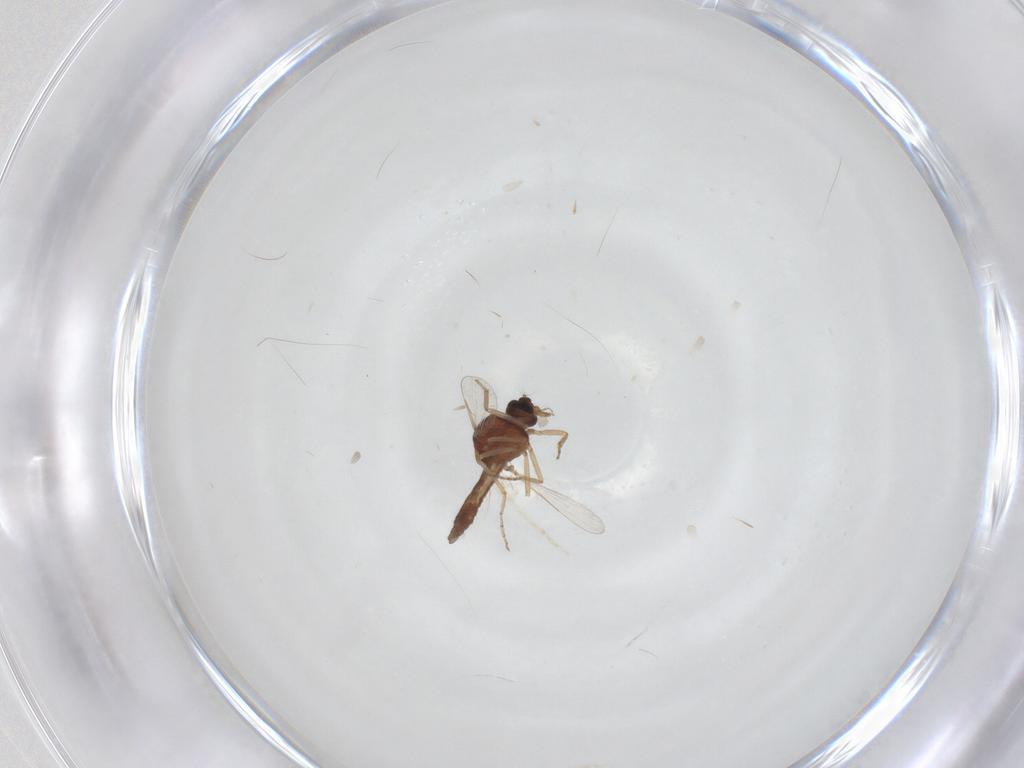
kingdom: Animalia
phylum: Arthropoda
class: Insecta
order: Diptera
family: Ceratopogonidae
